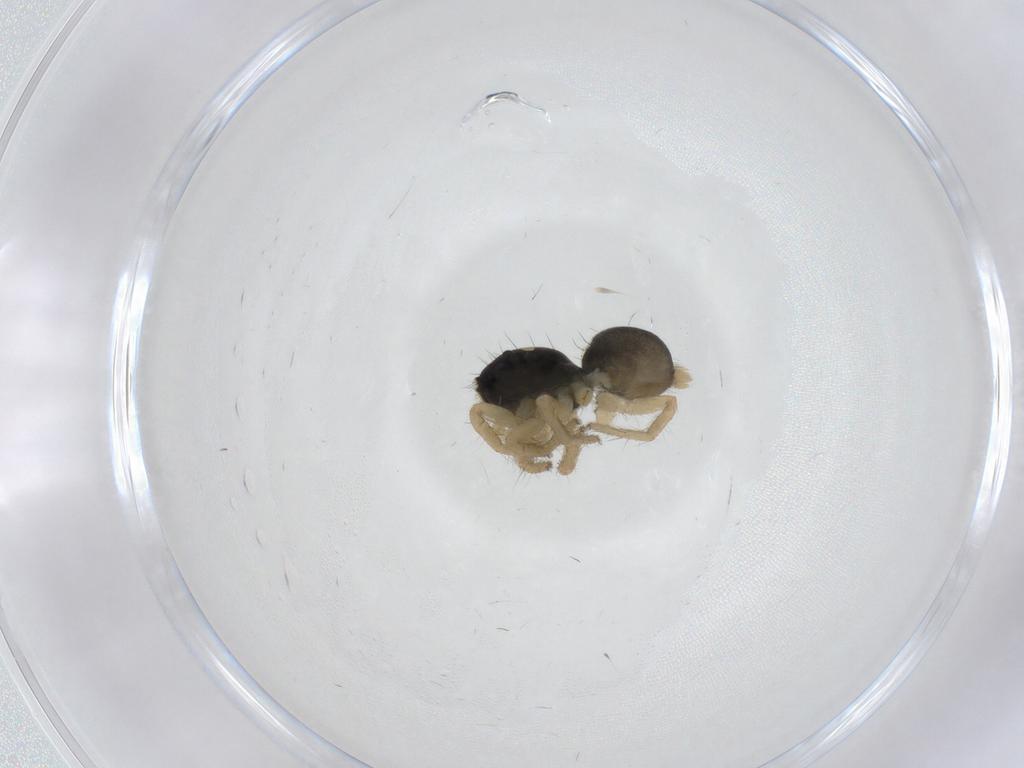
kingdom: Animalia
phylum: Arthropoda
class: Arachnida
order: Araneae
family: Salticidae
